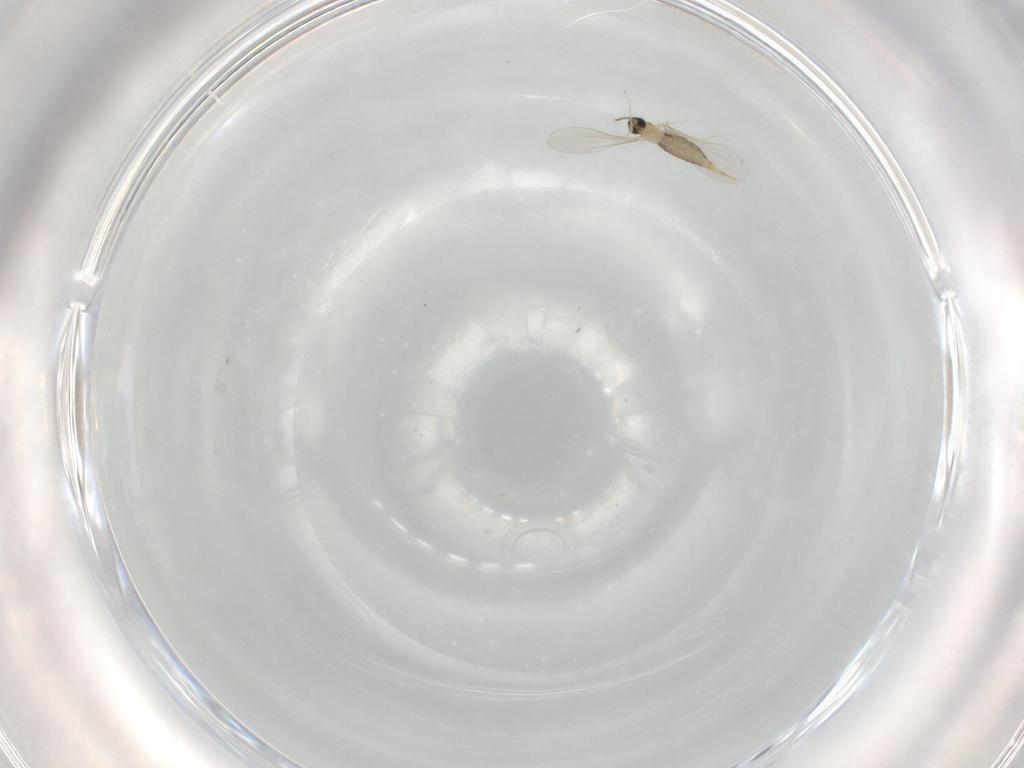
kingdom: Animalia
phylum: Arthropoda
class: Insecta
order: Diptera
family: Phoridae
